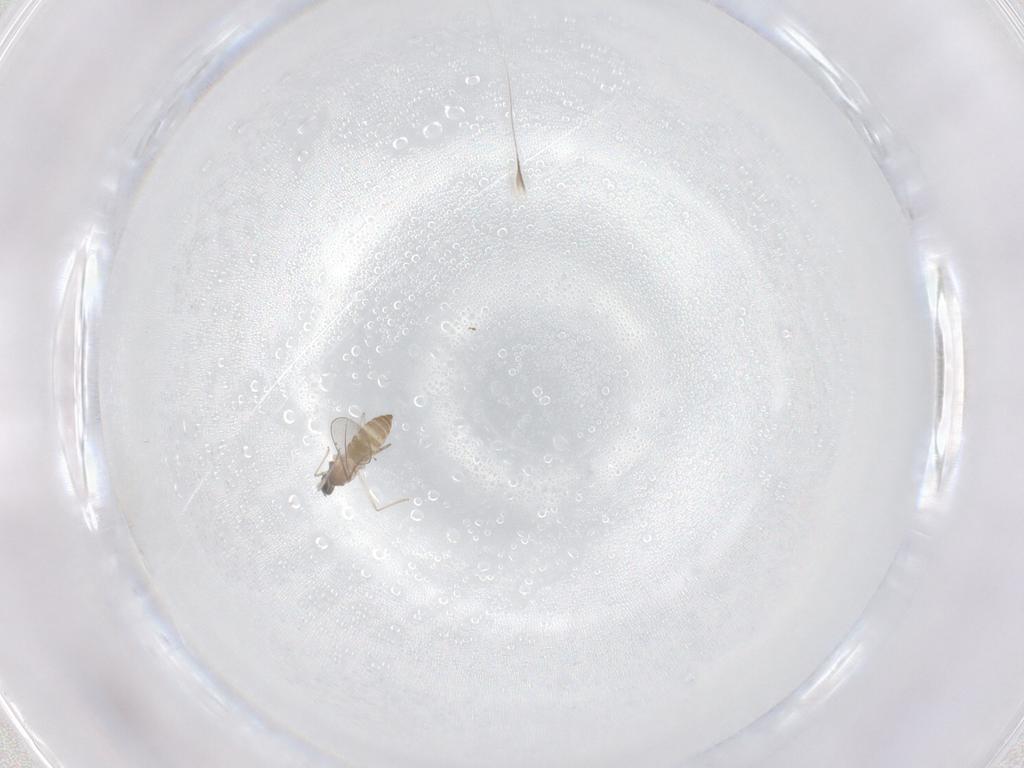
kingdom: Animalia
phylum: Arthropoda
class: Insecta
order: Diptera
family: Cecidomyiidae
